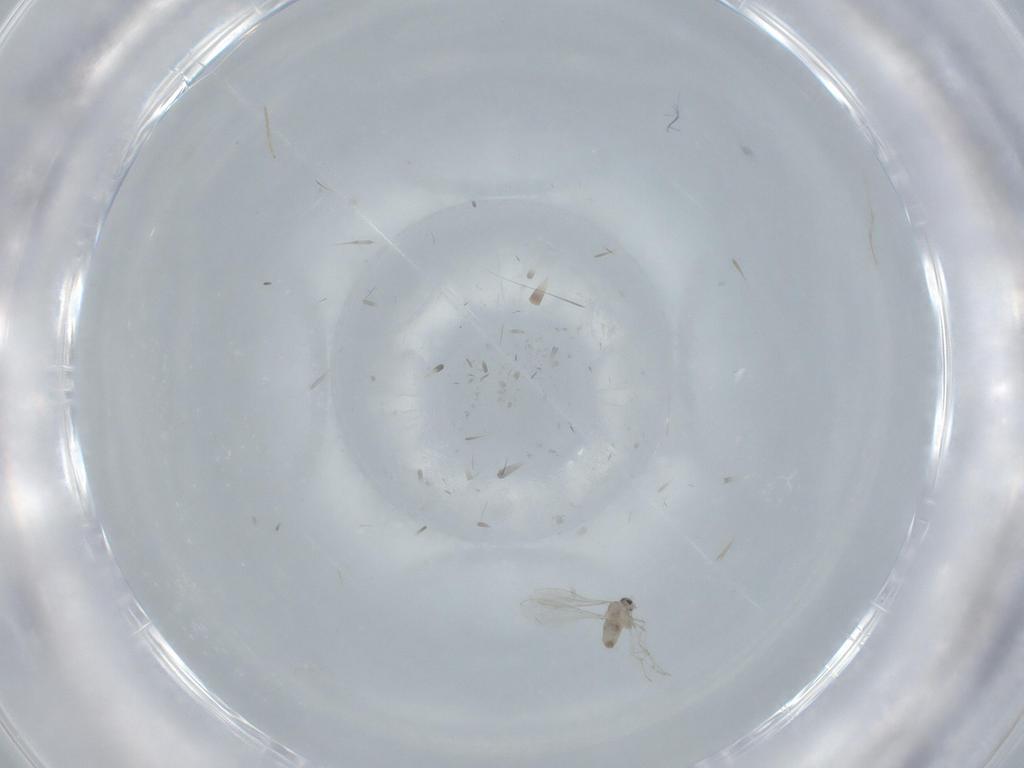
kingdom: Animalia
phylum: Arthropoda
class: Insecta
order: Diptera
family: Cecidomyiidae
